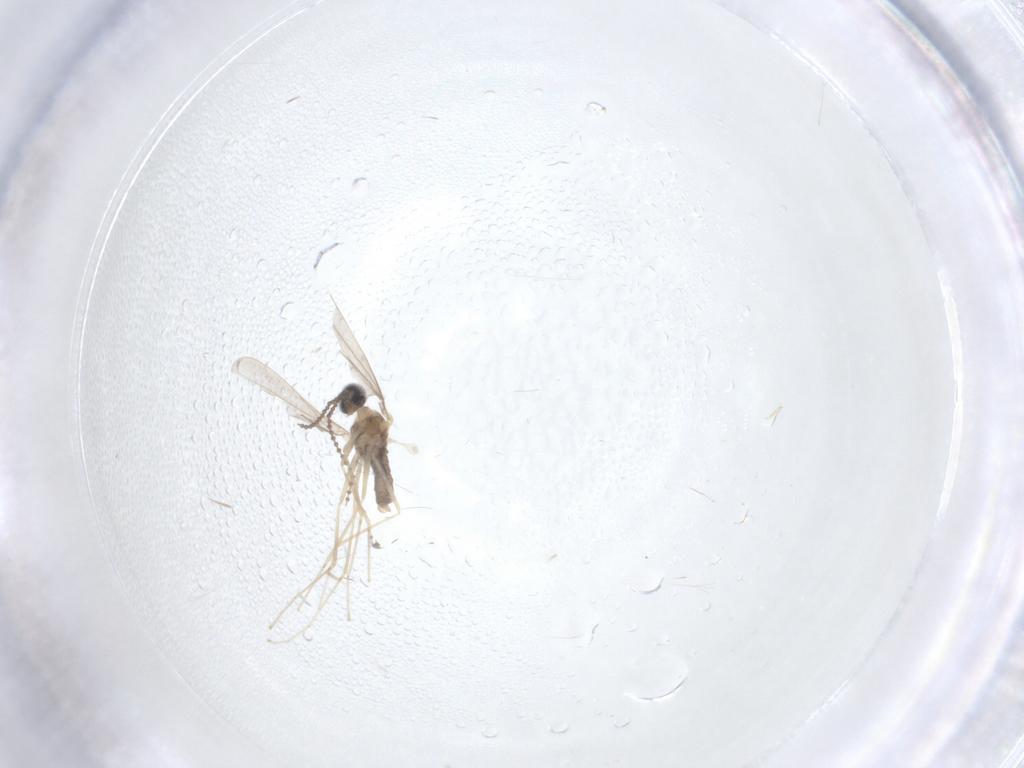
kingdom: Animalia
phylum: Arthropoda
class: Insecta
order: Diptera
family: Cecidomyiidae
